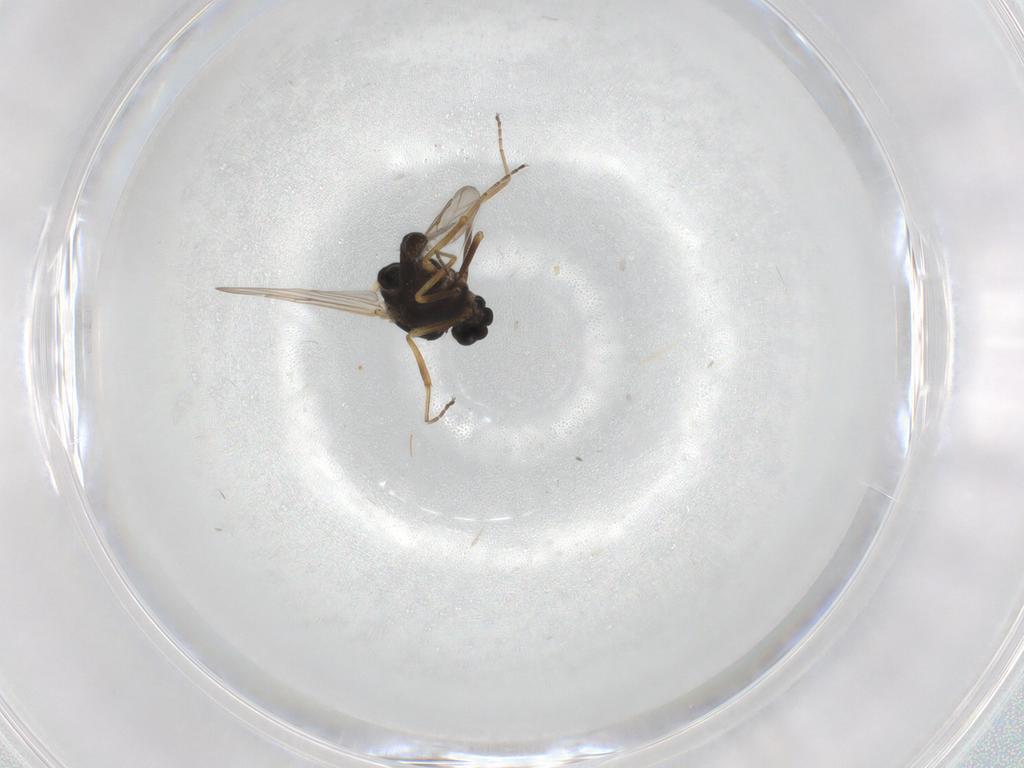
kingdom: Animalia
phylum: Arthropoda
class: Insecta
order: Diptera
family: Ceratopogonidae
